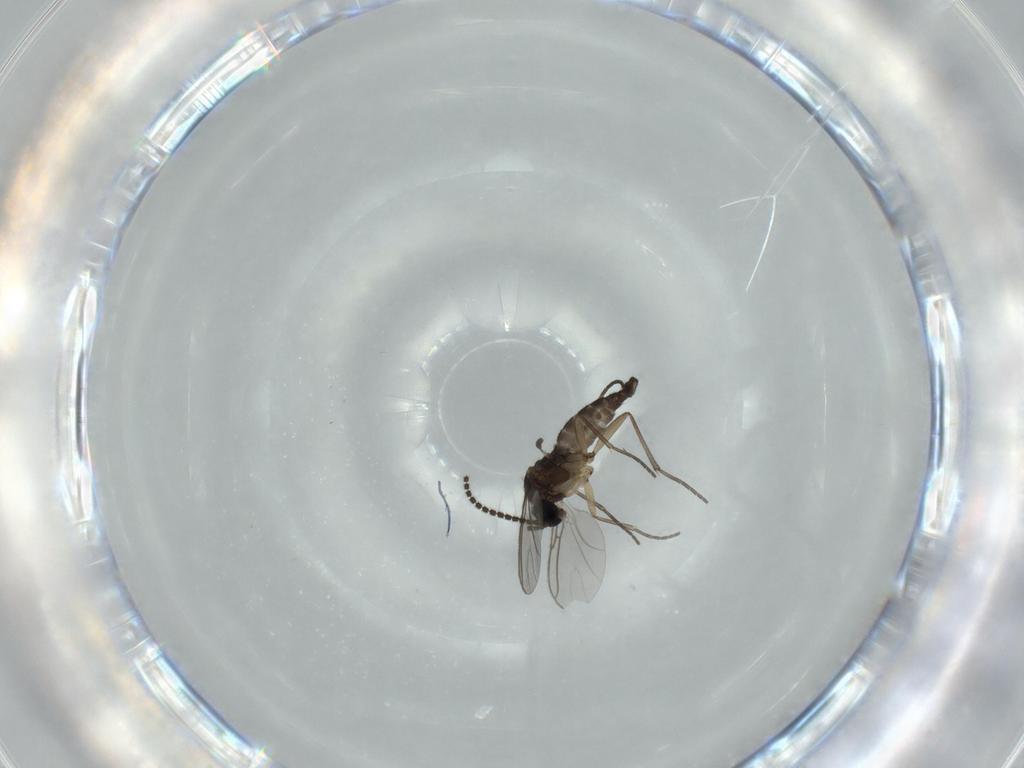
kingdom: Animalia
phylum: Arthropoda
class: Insecta
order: Diptera
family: Sciaridae
